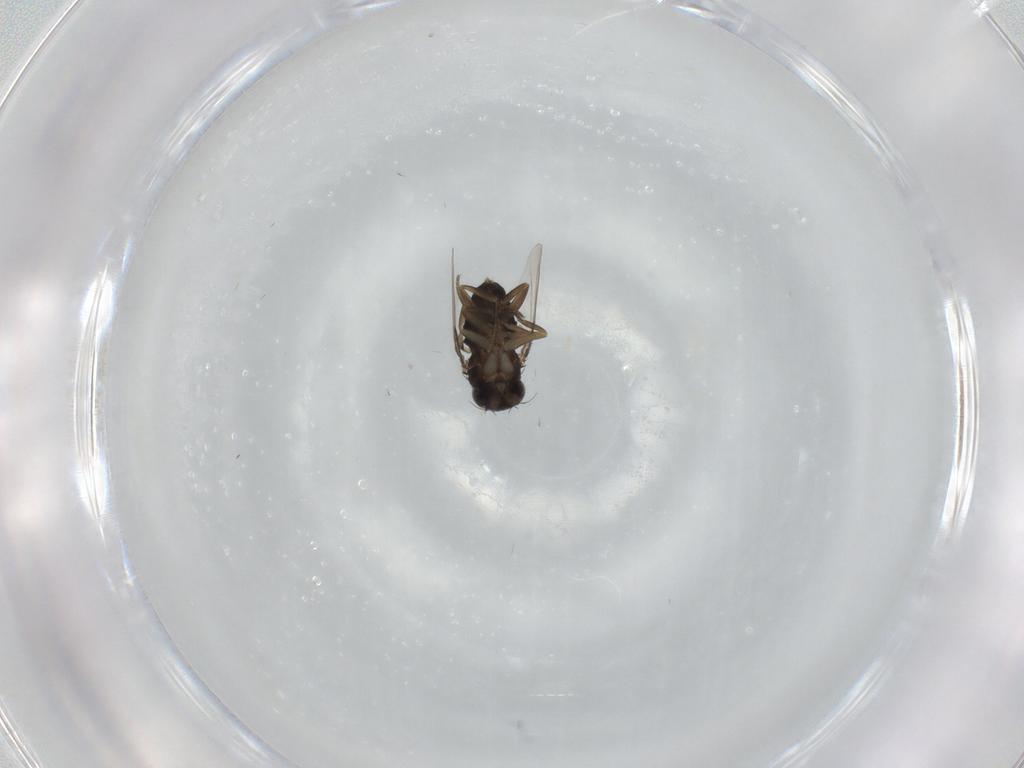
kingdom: Animalia
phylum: Arthropoda
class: Insecta
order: Diptera
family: Phoridae
